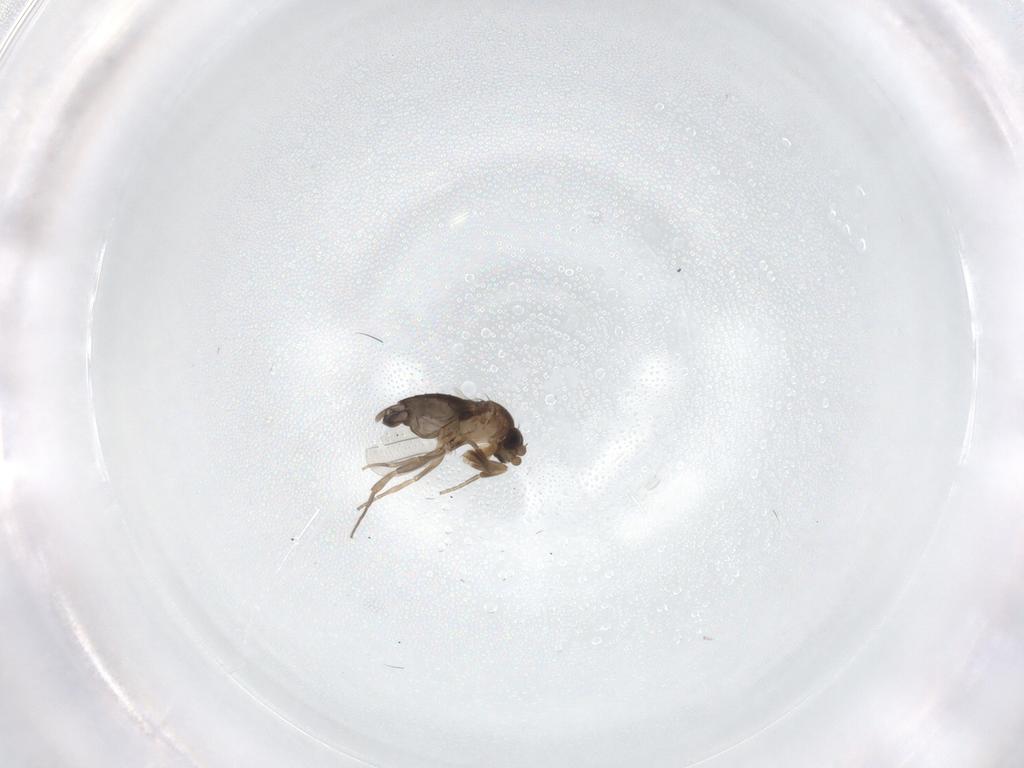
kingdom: Animalia
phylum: Arthropoda
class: Insecta
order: Diptera
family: Phoridae
